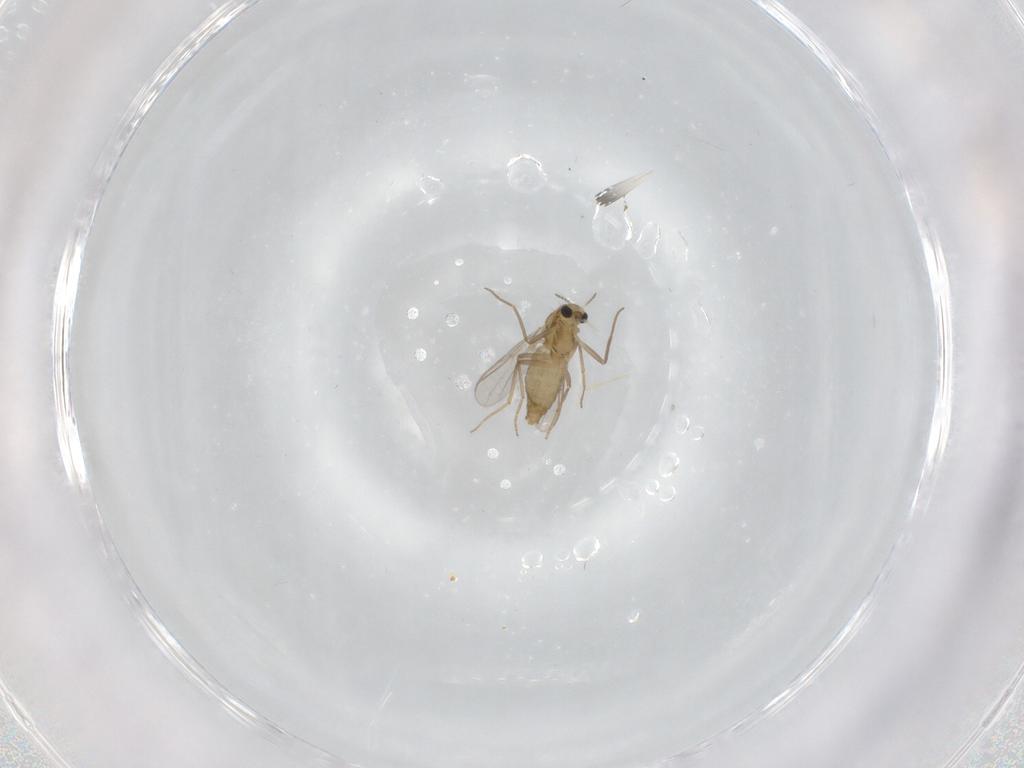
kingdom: Animalia
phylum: Arthropoda
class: Insecta
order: Diptera
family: Chironomidae
